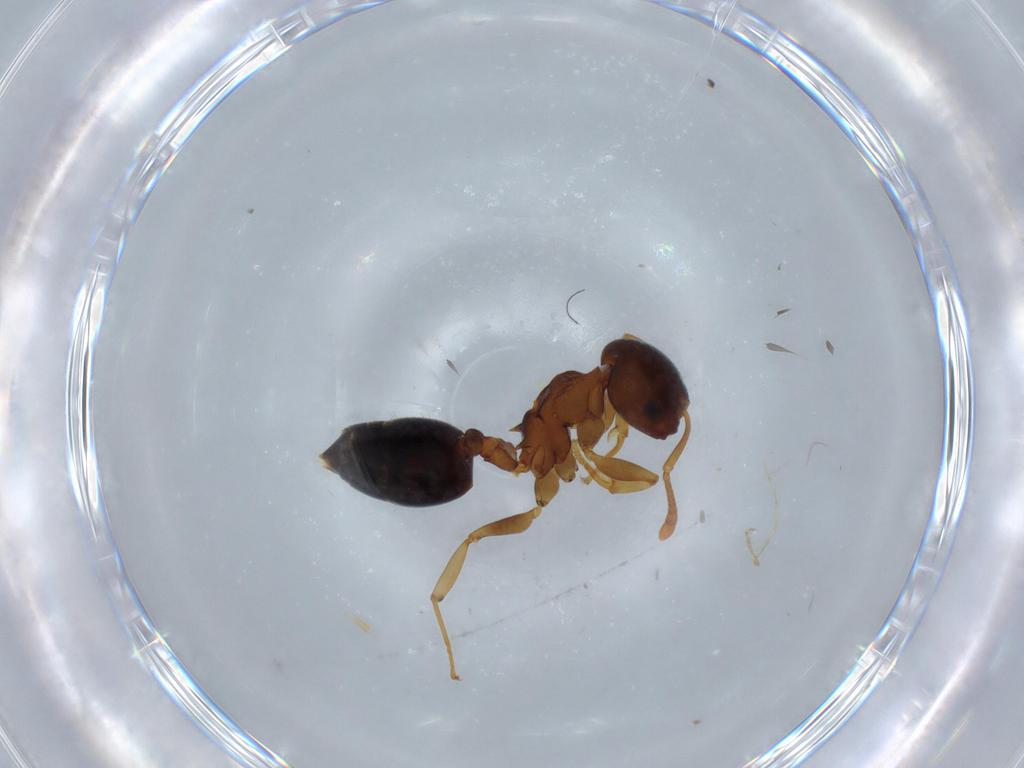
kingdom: Animalia
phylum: Arthropoda
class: Insecta
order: Hymenoptera
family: Formicidae
